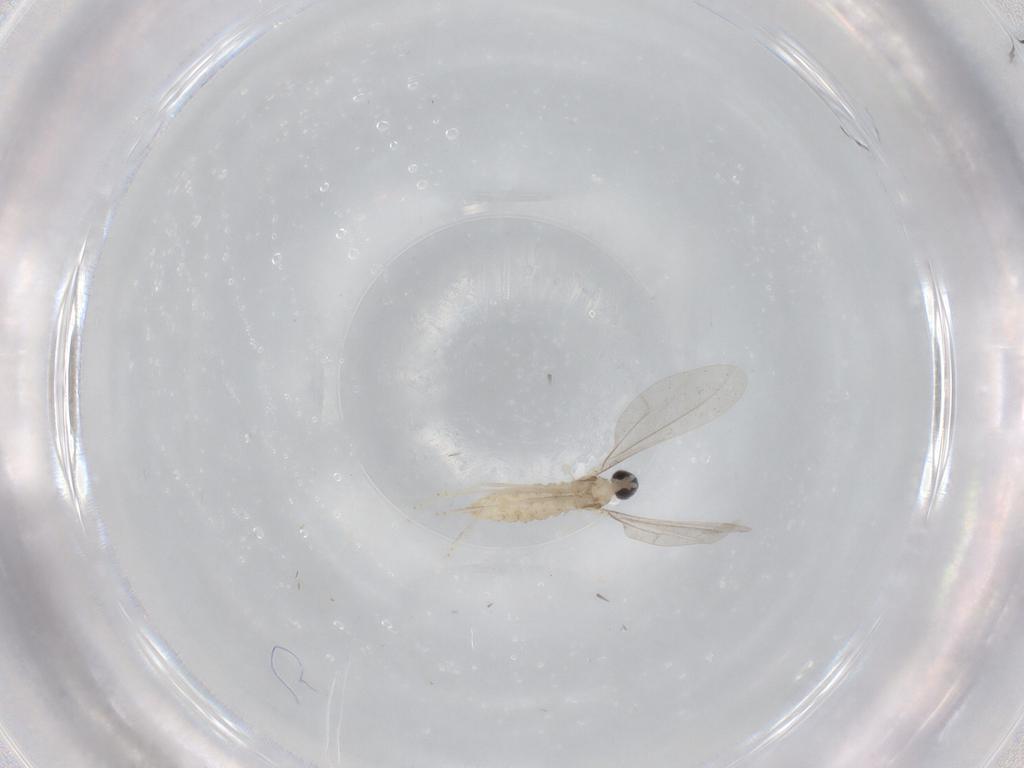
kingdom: Animalia
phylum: Arthropoda
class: Insecta
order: Diptera
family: Cecidomyiidae
